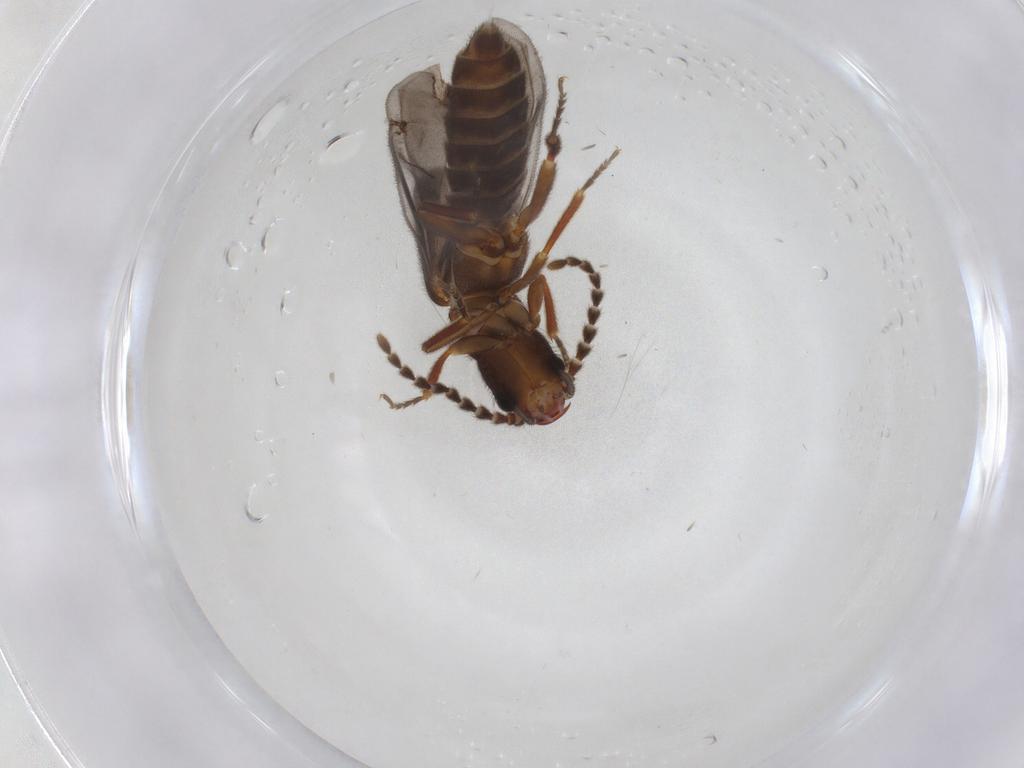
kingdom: Animalia
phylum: Arthropoda
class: Insecta
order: Coleoptera
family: Omethidae
